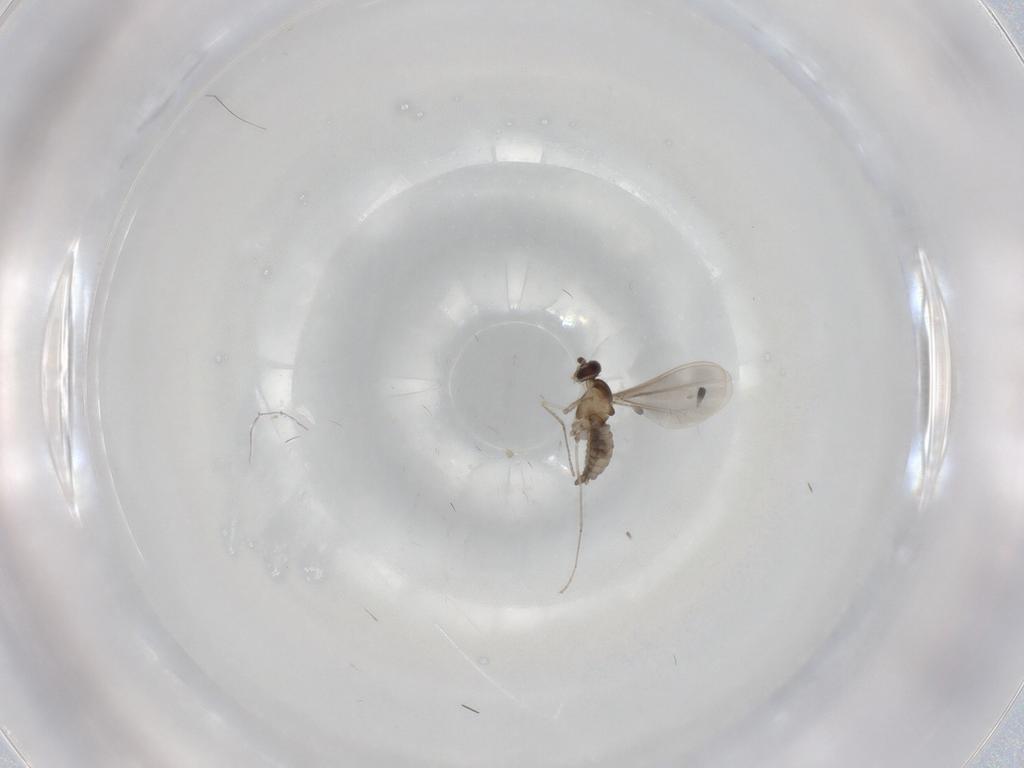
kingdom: Animalia
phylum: Arthropoda
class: Insecta
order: Diptera
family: Cecidomyiidae
